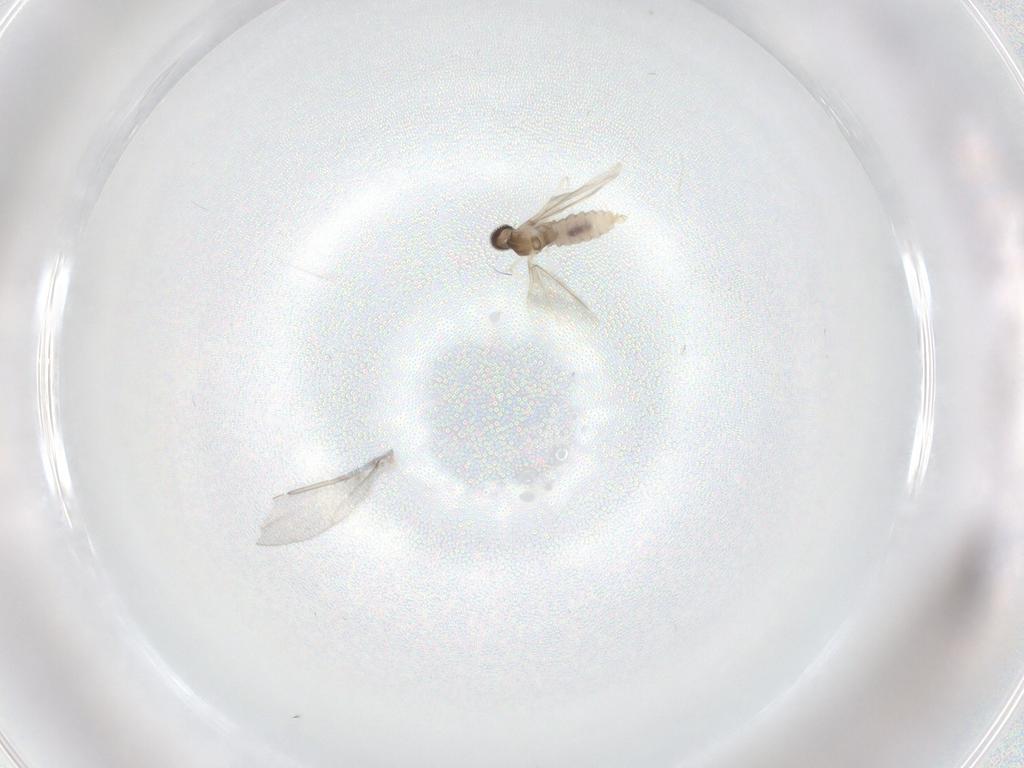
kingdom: Animalia
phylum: Arthropoda
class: Insecta
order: Diptera
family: Cecidomyiidae
